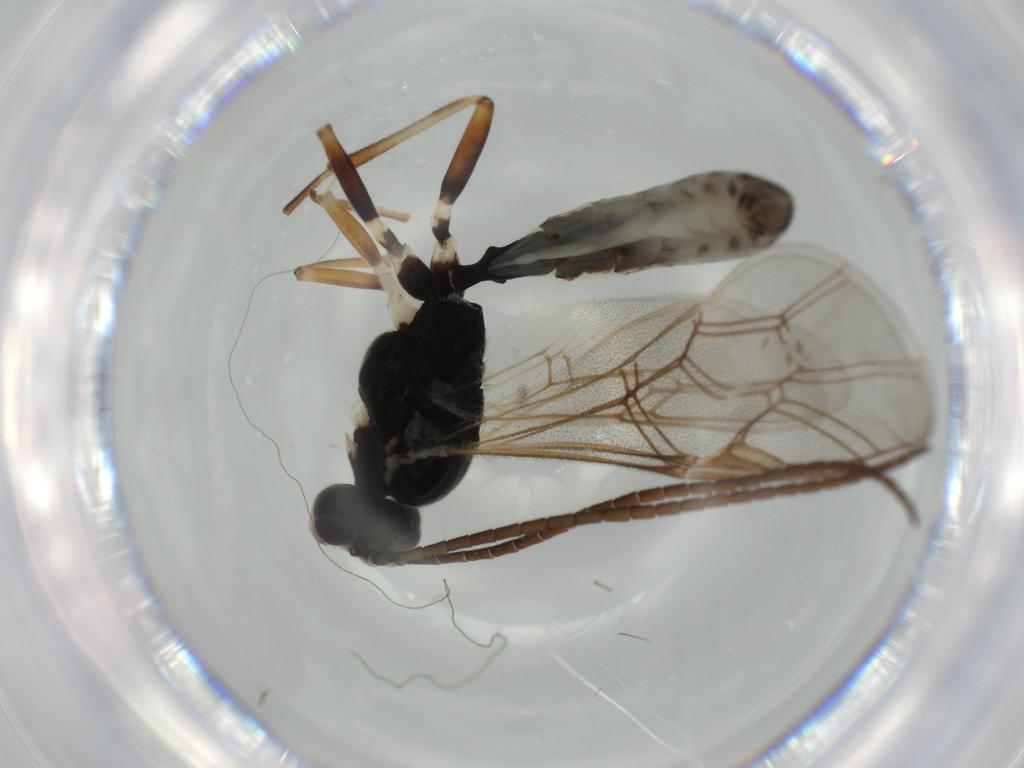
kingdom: Animalia
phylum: Arthropoda
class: Insecta
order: Hymenoptera
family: Ichneumonidae
